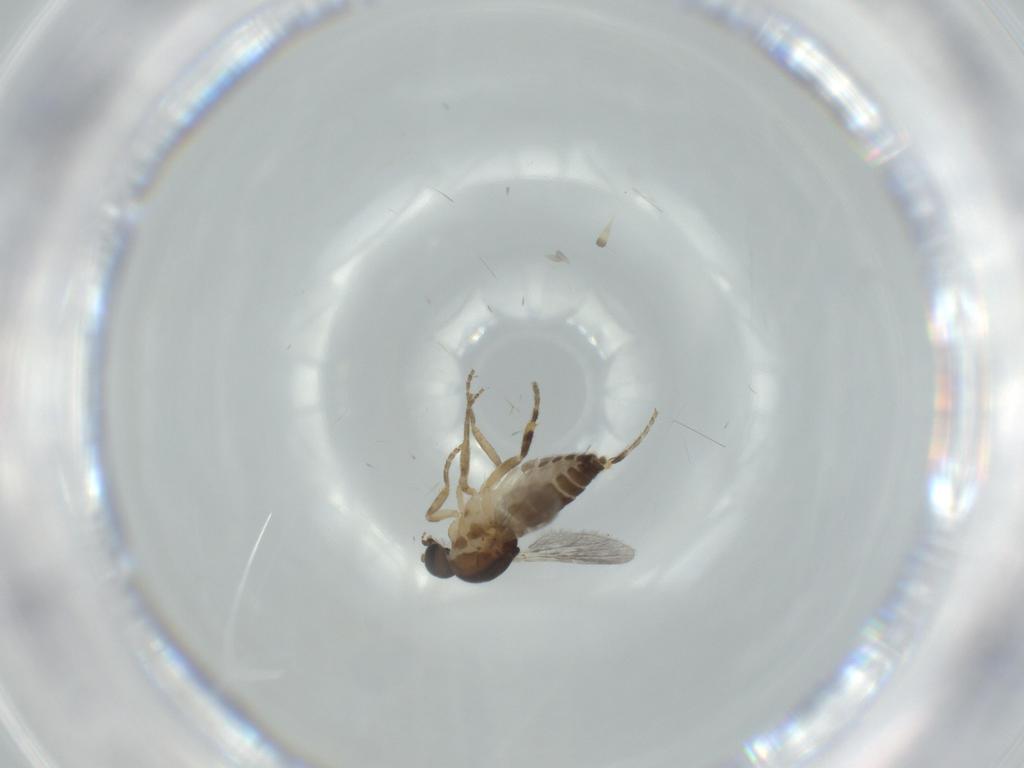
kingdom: Animalia
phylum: Arthropoda
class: Insecta
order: Diptera
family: Ceratopogonidae
